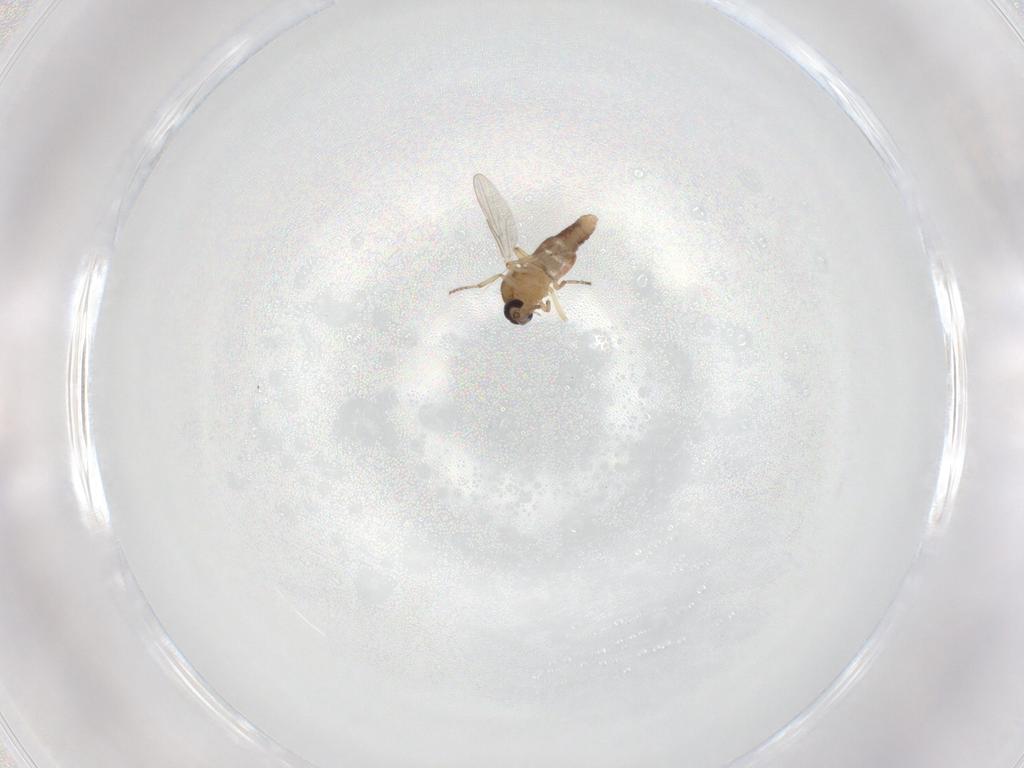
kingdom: Animalia
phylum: Arthropoda
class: Insecta
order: Diptera
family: Ceratopogonidae
